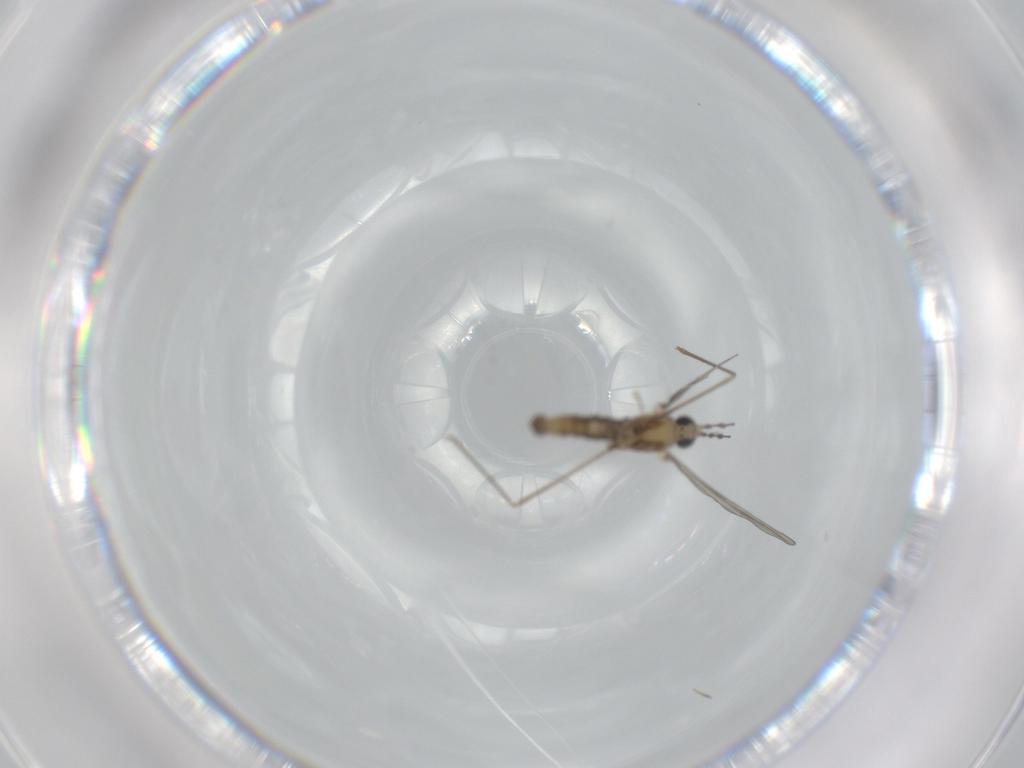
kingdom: Animalia
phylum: Arthropoda
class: Insecta
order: Diptera
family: Cecidomyiidae
